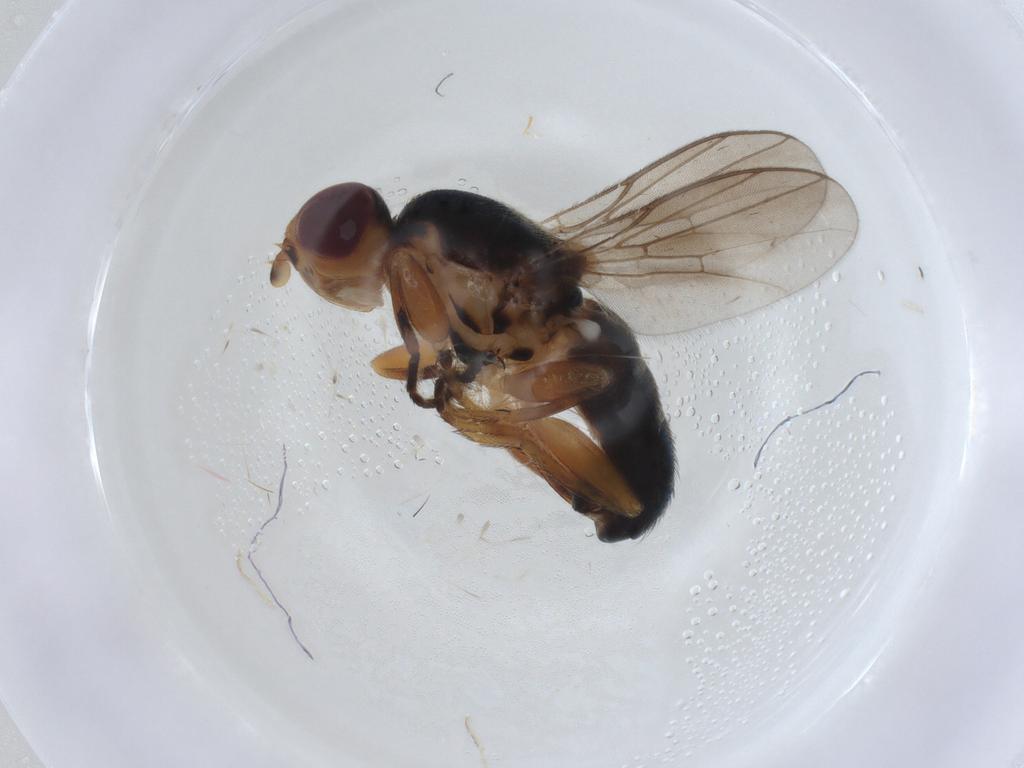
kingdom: Animalia
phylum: Arthropoda
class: Insecta
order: Diptera
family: Chloropidae
